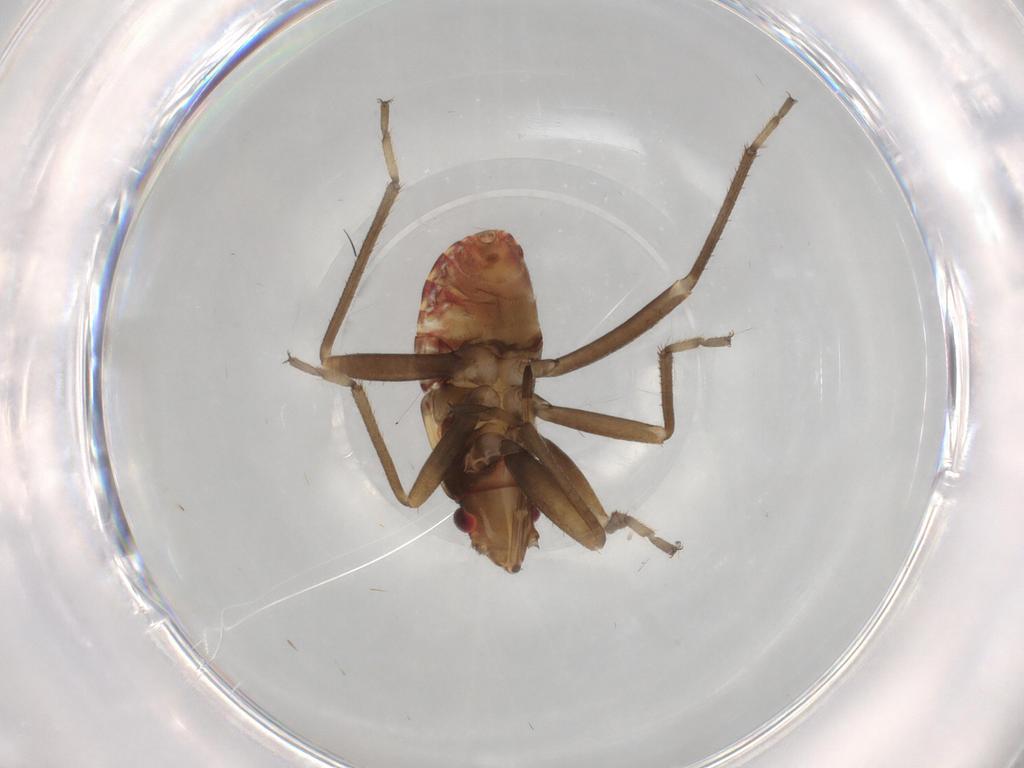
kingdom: Animalia
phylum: Arthropoda
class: Insecta
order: Hemiptera
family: Rhyparochromidae
